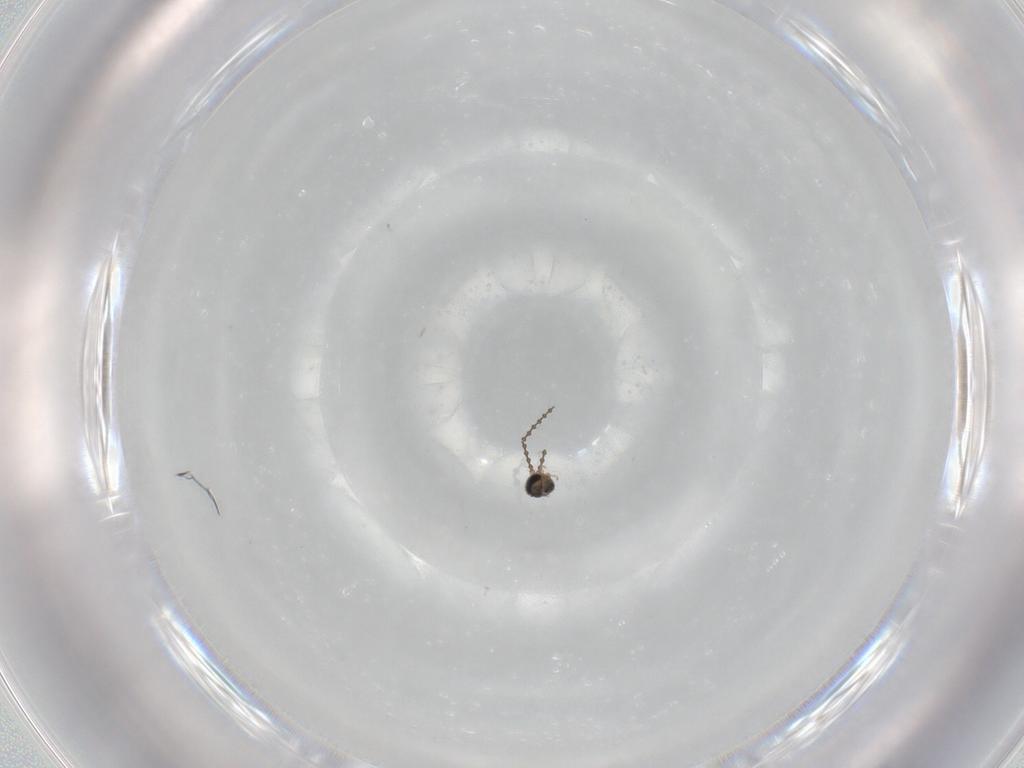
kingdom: Animalia
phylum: Arthropoda
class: Insecta
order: Diptera
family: Cecidomyiidae
